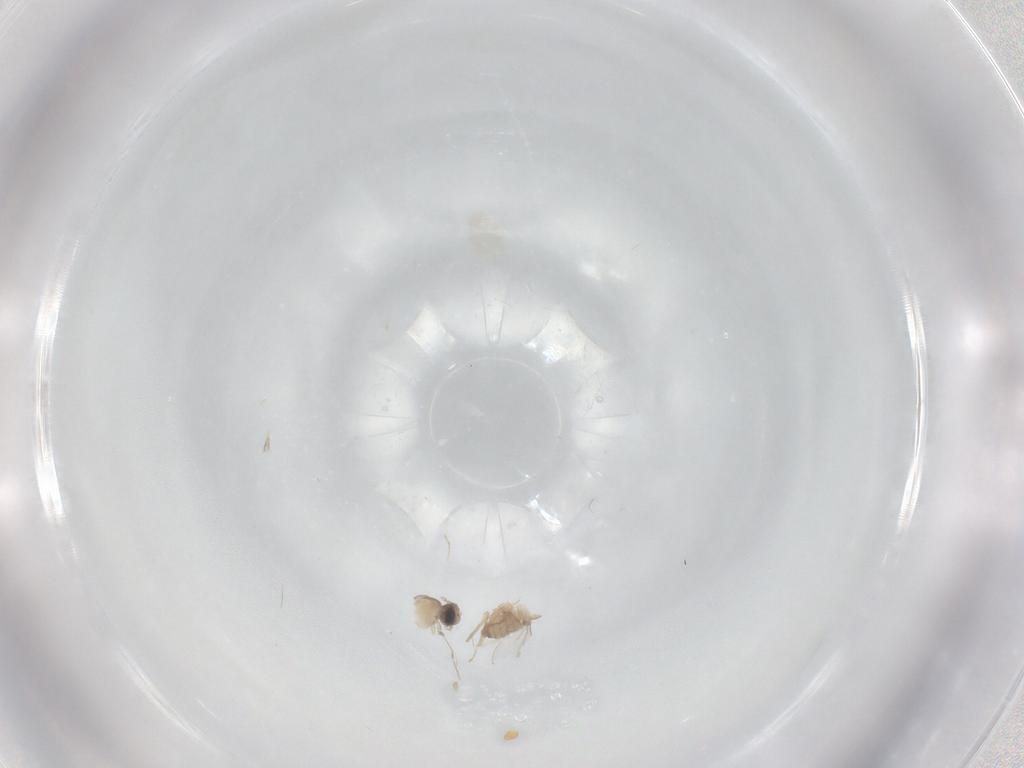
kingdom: Animalia
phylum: Arthropoda
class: Insecta
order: Diptera
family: Cecidomyiidae
